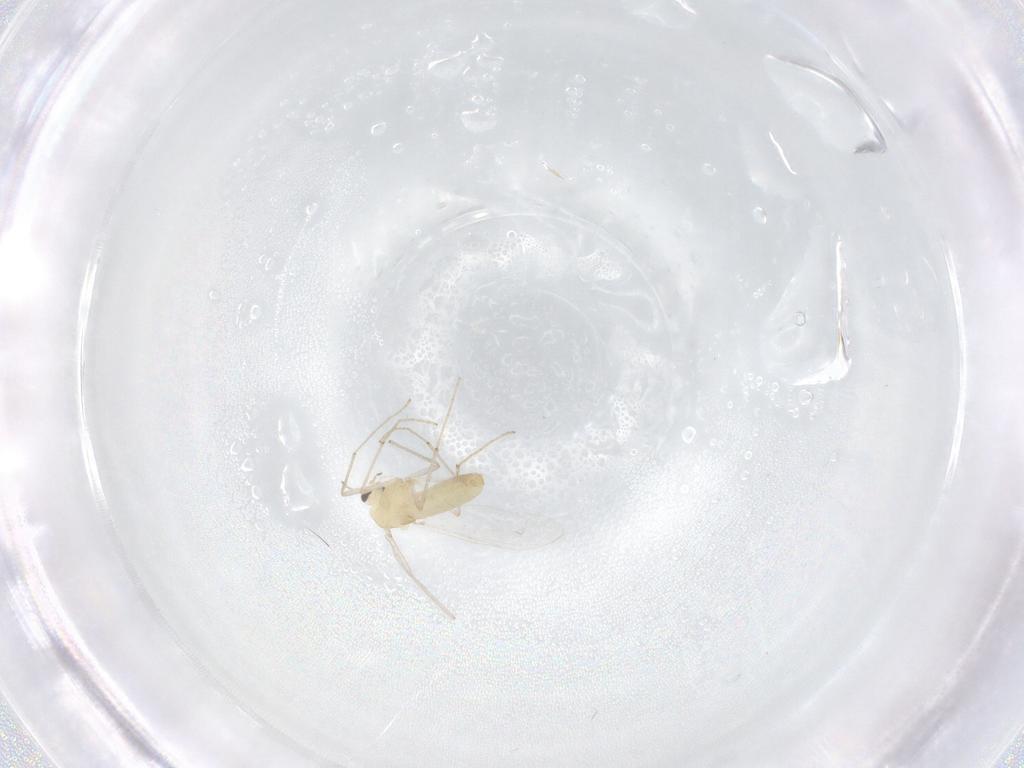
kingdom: Animalia
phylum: Arthropoda
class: Insecta
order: Diptera
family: Chironomidae
